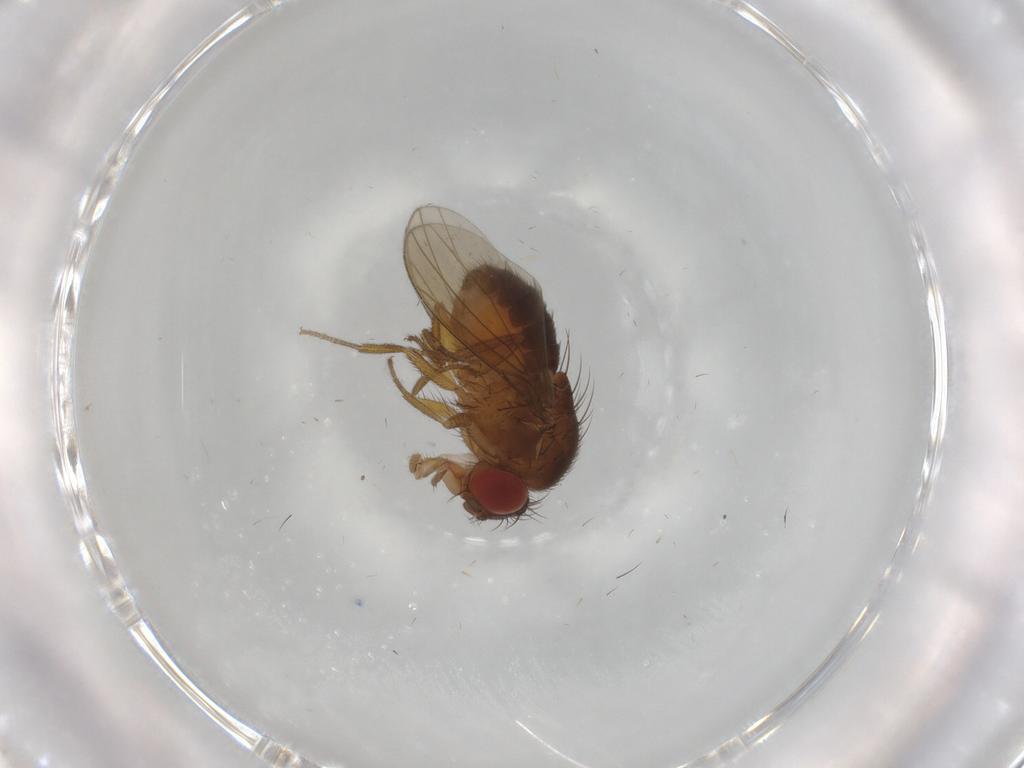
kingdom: Animalia
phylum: Arthropoda
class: Insecta
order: Diptera
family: Drosophilidae
